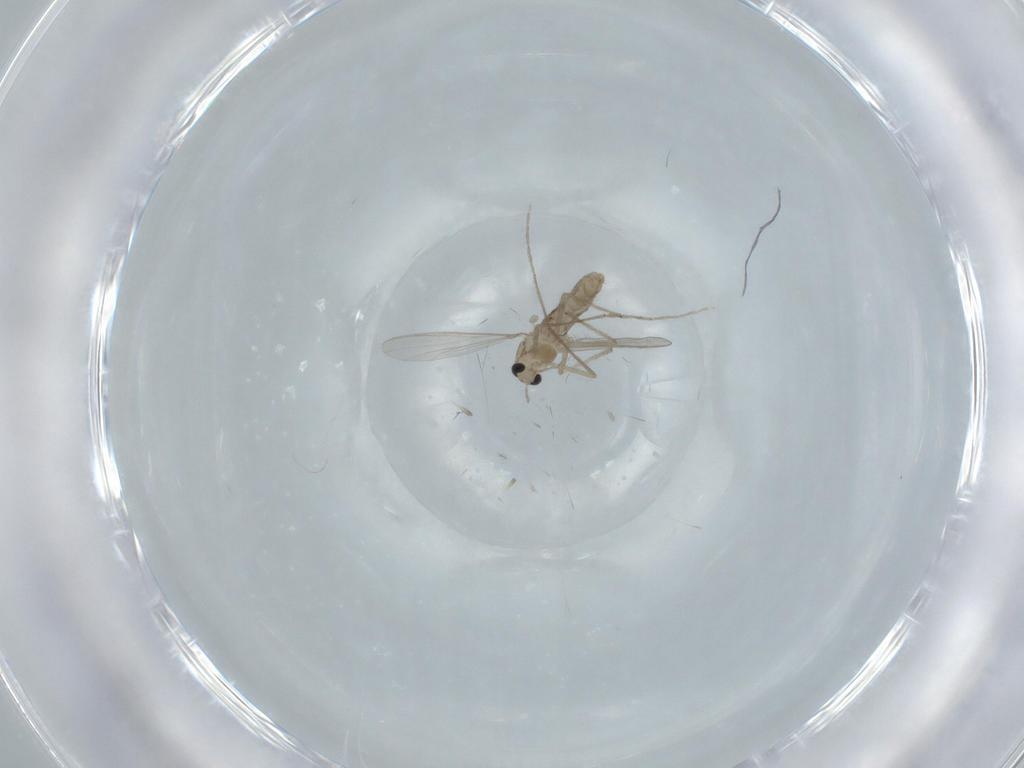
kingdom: Animalia
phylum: Arthropoda
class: Insecta
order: Diptera
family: Chironomidae
